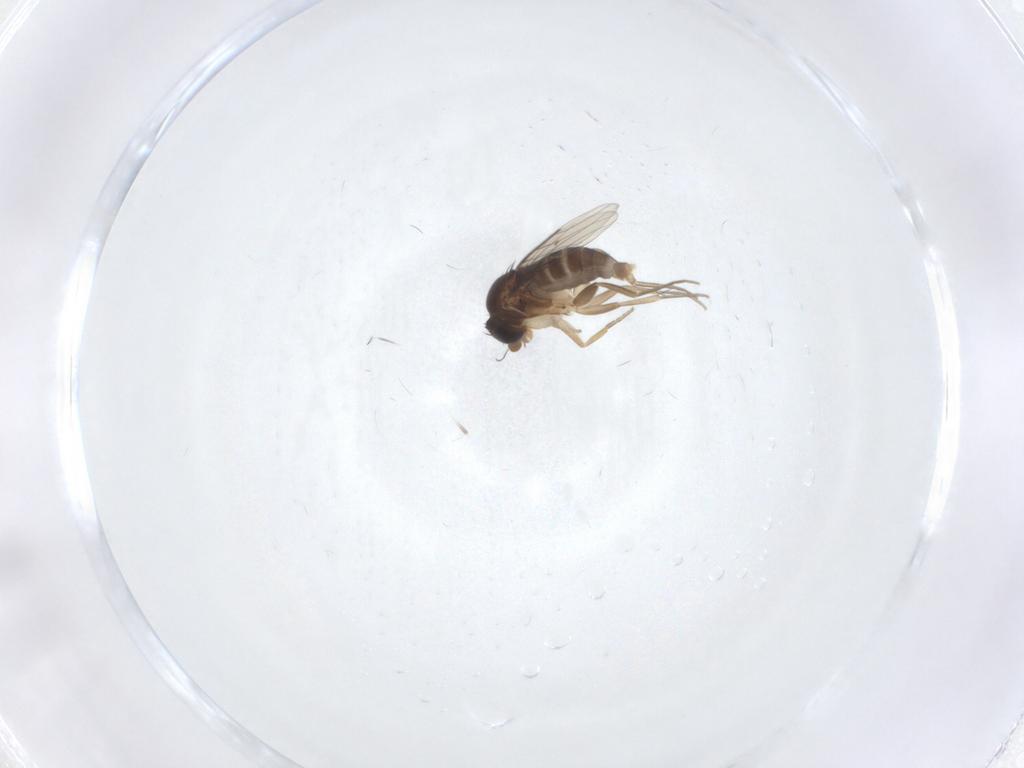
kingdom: Animalia
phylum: Arthropoda
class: Insecta
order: Diptera
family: Phoridae
